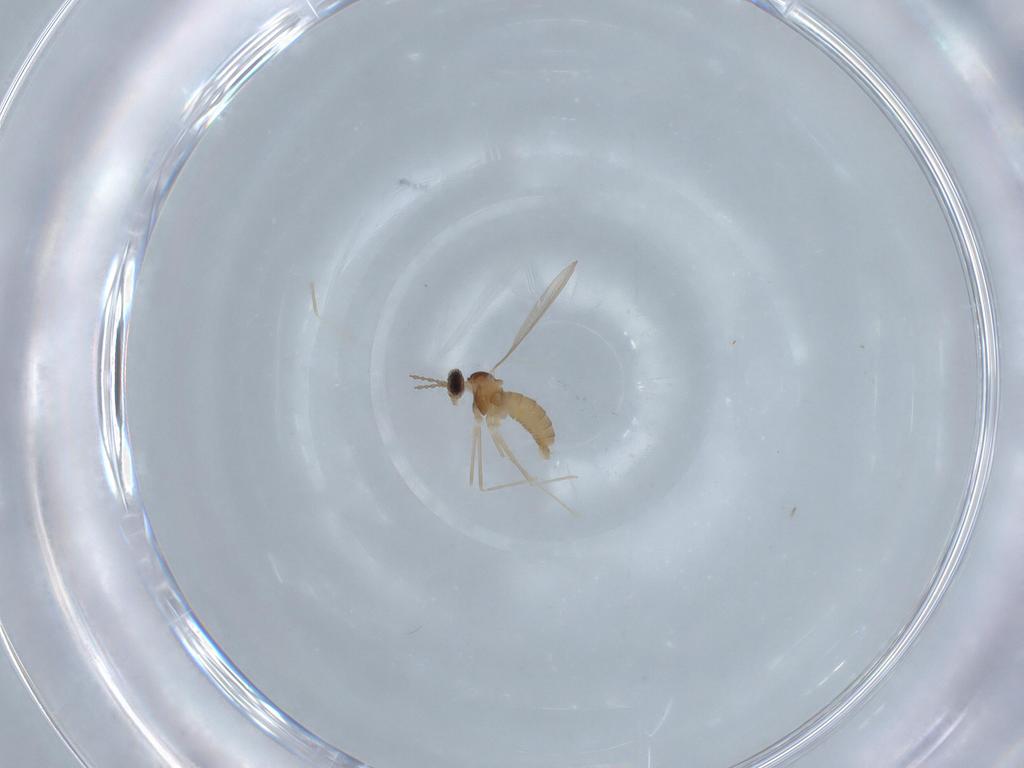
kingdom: Animalia
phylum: Arthropoda
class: Insecta
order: Diptera
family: Cecidomyiidae
